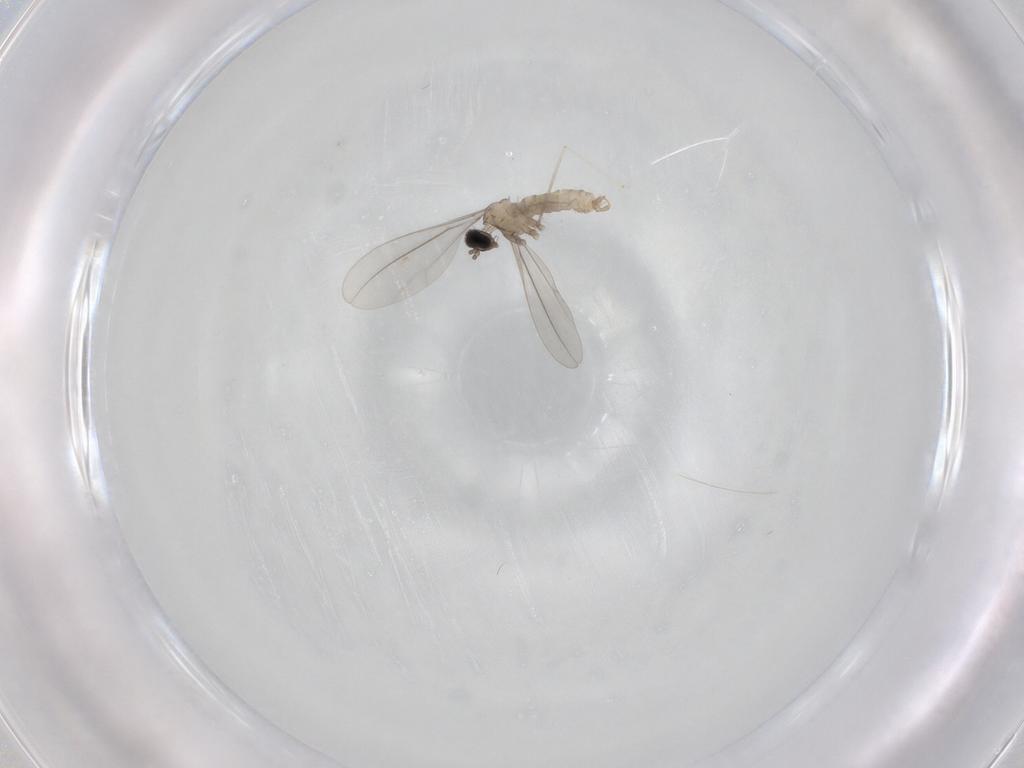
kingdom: Animalia
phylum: Arthropoda
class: Insecta
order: Diptera
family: Cecidomyiidae
